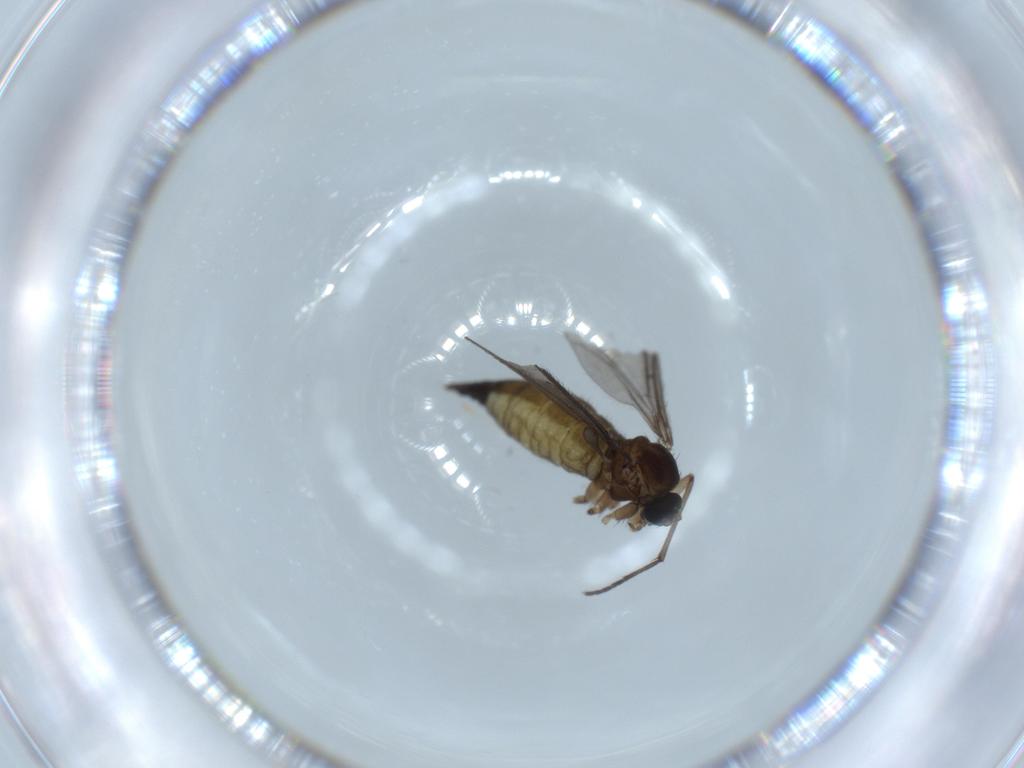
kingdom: Animalia
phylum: Arthropoda
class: Insecta
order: Diptera
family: Sciaridae
